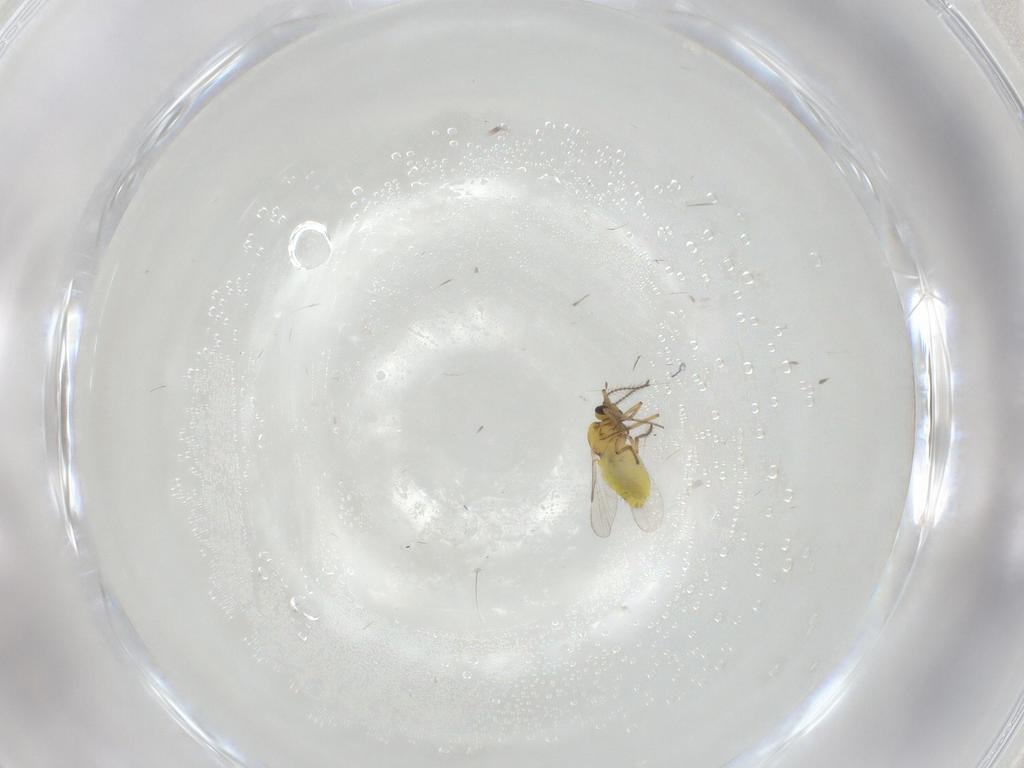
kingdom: Animalia
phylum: Arthropoda
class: Insecta
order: Diptera
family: Ceratopogonidae
